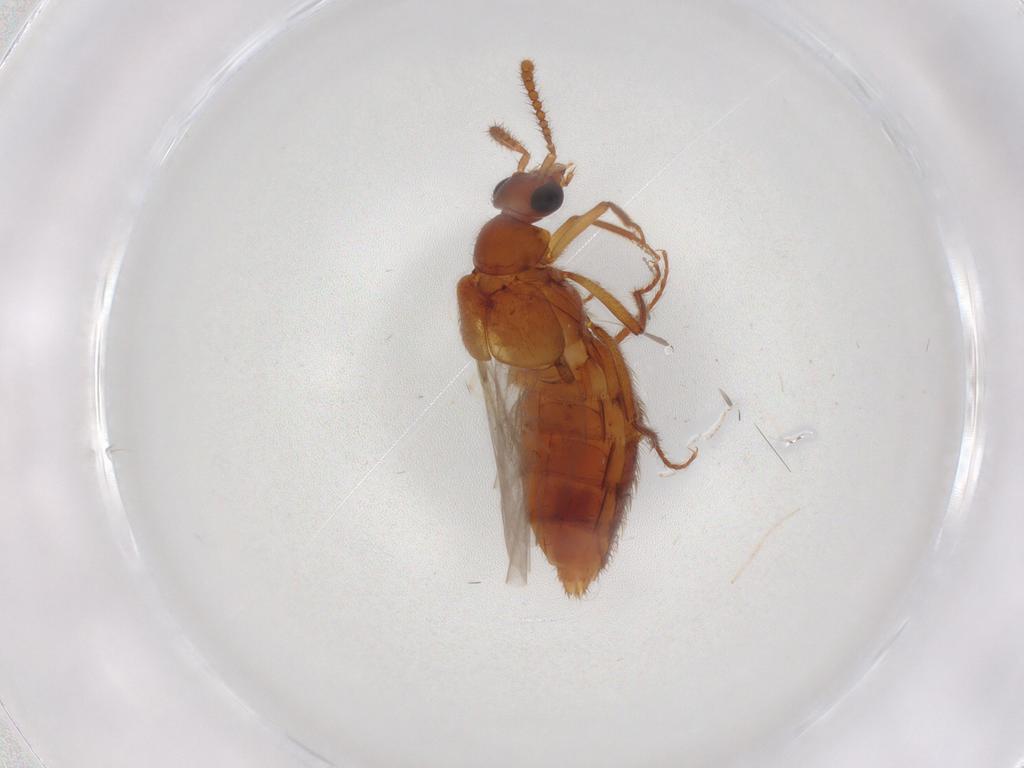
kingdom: Animalia
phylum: Arthropoda
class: Insecta
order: Coleoptera
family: Staphylinidae
